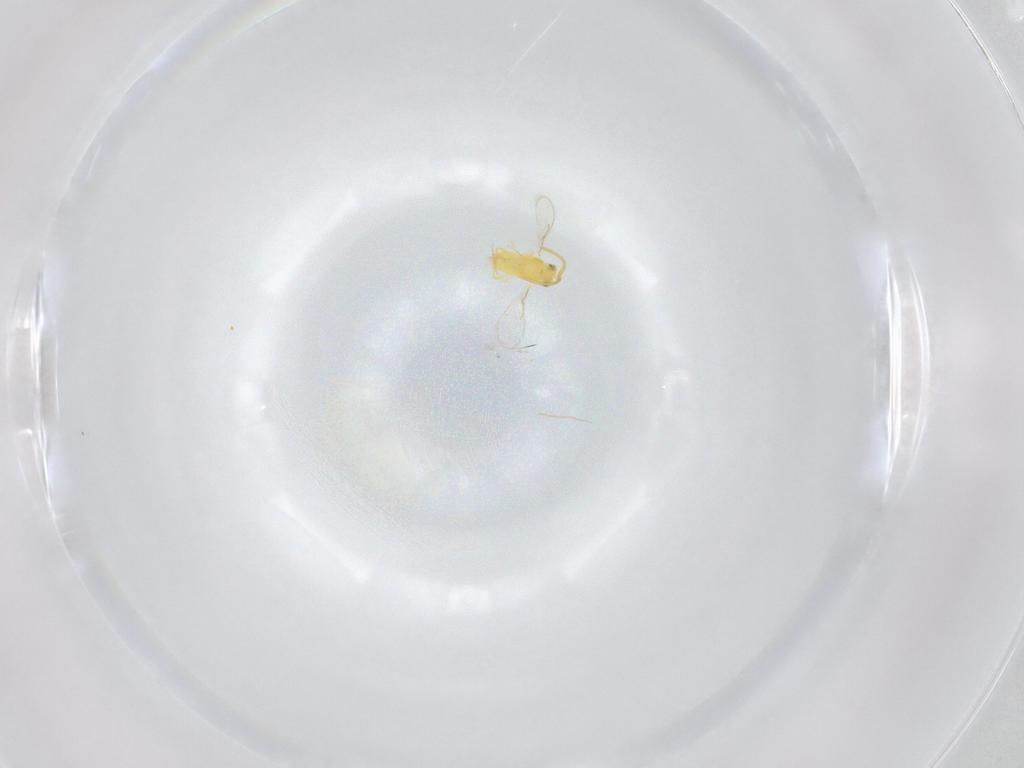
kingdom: Animalia
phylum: Arthropoda
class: Insecta
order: Hymenoptera
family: Aphelinidae
